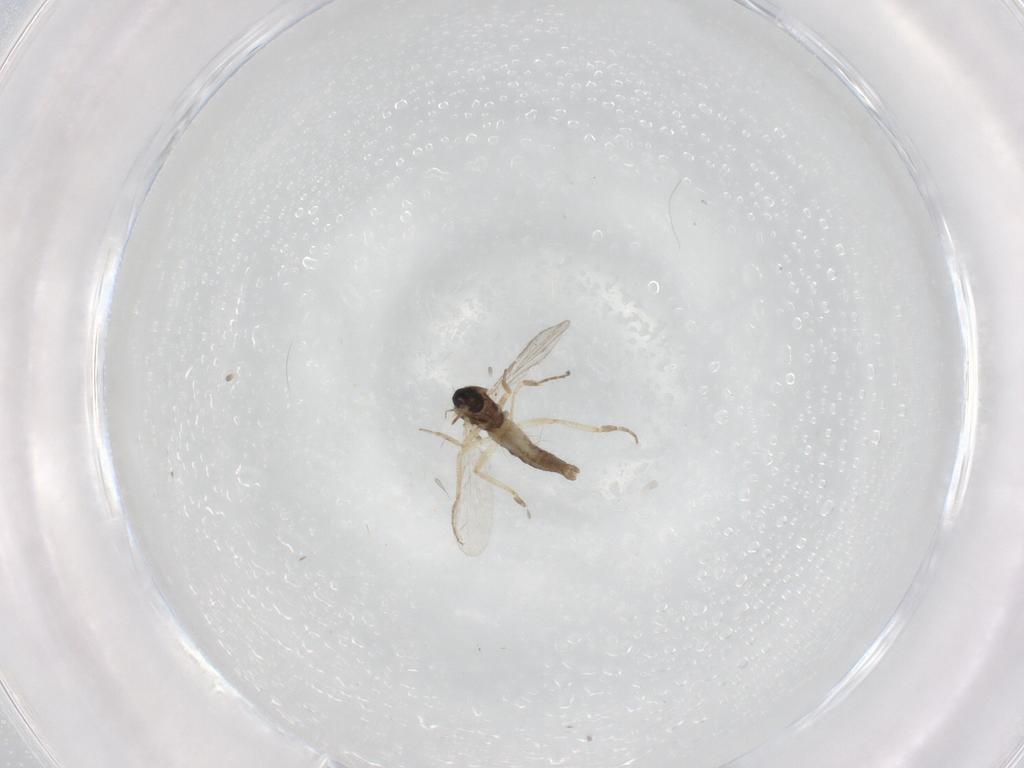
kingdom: Animalia
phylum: Arthropoda
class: Insecta
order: Diptera
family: Ceratopogonidae
